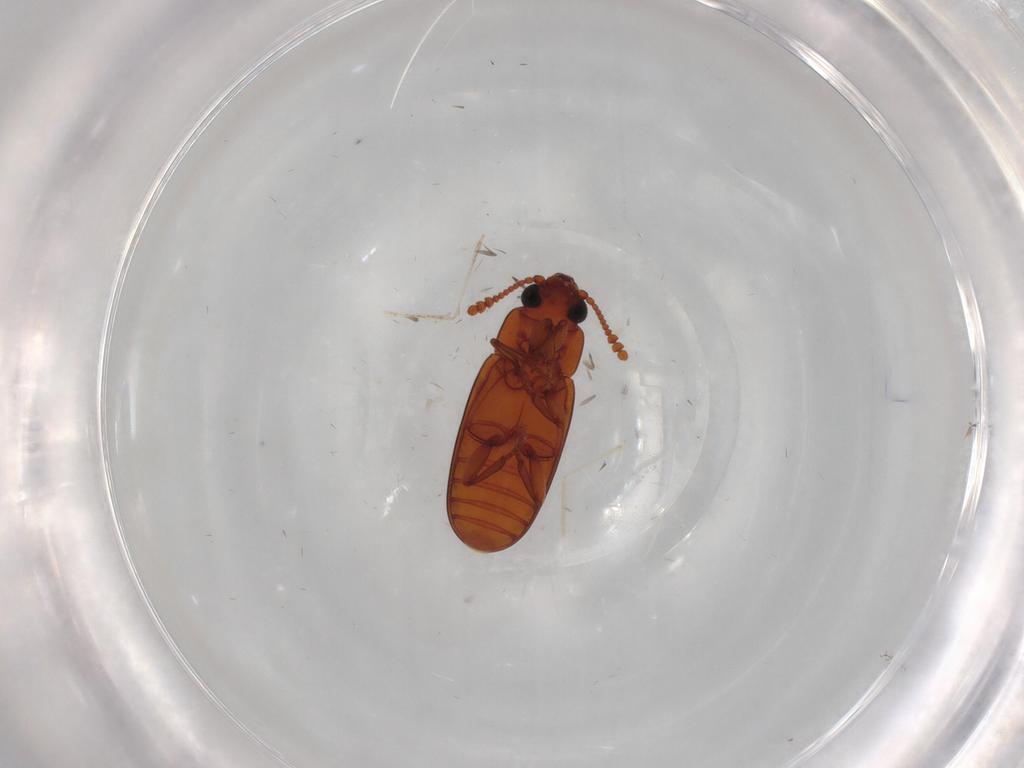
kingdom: Animalia
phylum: Arthropoda
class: Insecta
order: Coleoptera
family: Erotylidae
